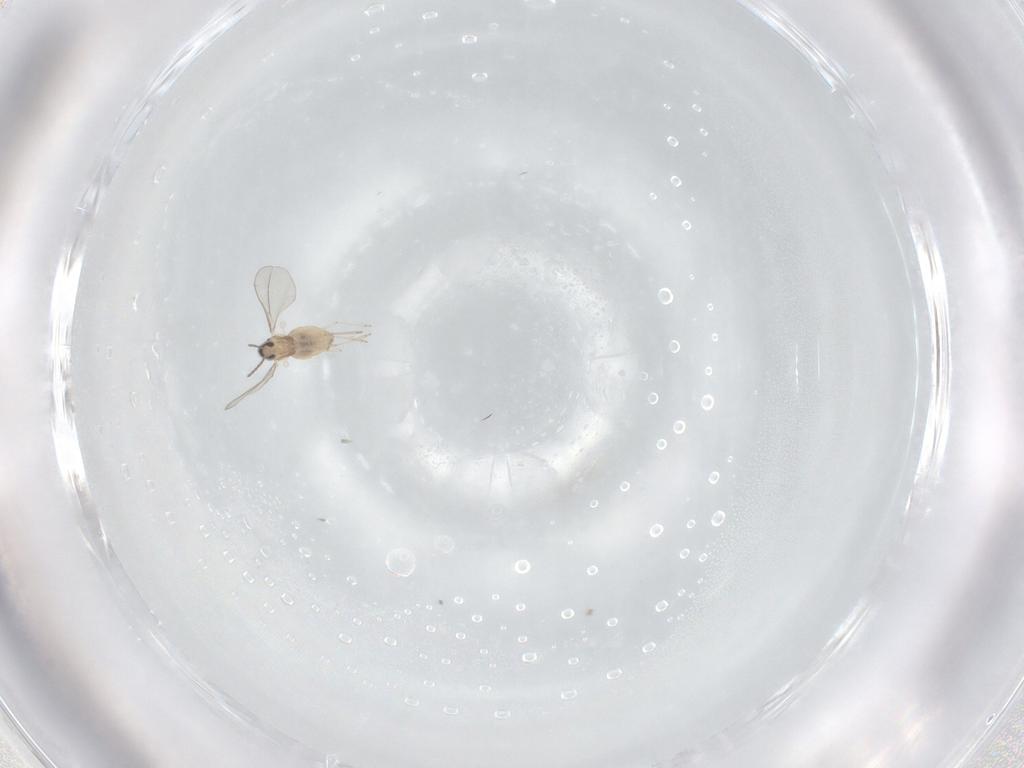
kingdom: Animalia
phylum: Arthropoda
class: Insecta
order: Diptera
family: Cecidomyiidae
